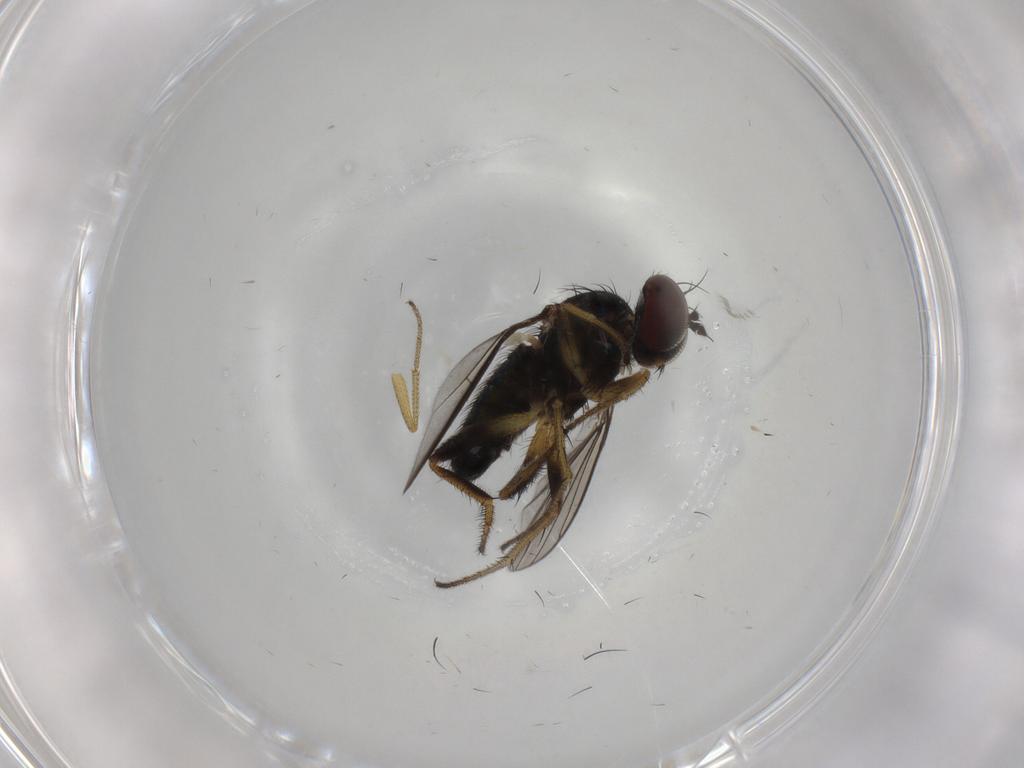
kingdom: Animalia
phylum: Arthropoda
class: Insecta
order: Diptera
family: Dolichopodidae
